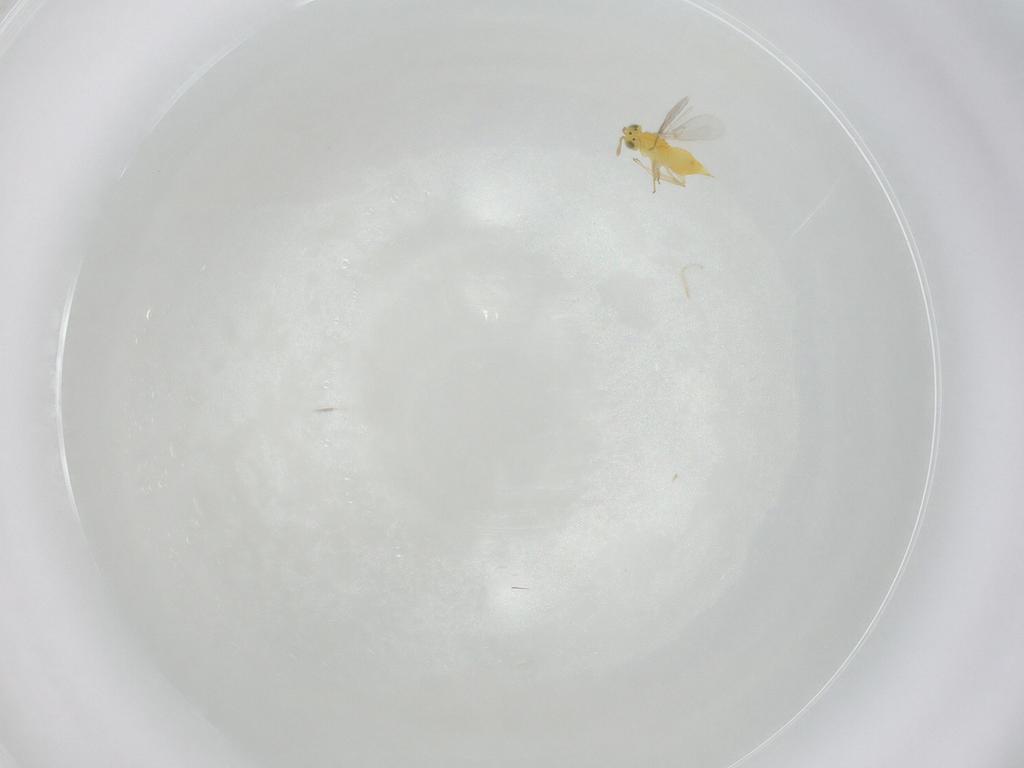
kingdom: Animalia
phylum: Arthropoda
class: Insecta
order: Hymenoptera
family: Aphelinidae
